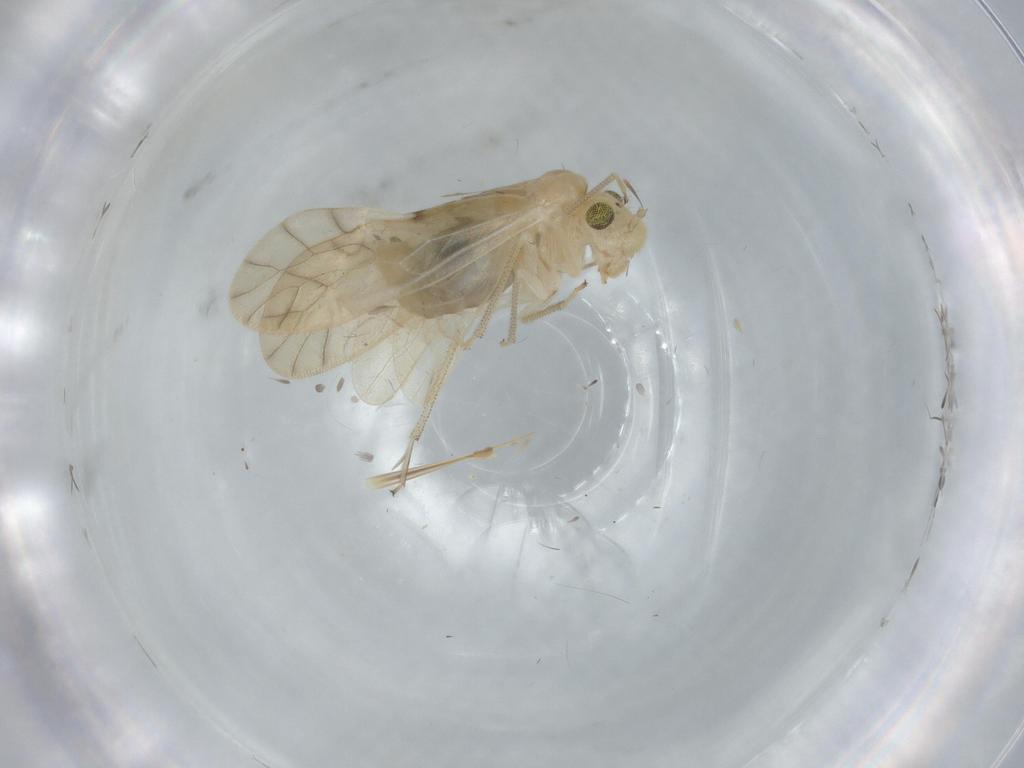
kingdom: Animalia
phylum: Arthropoda
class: Insecta
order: Psocodea
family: Caeciliusidae
